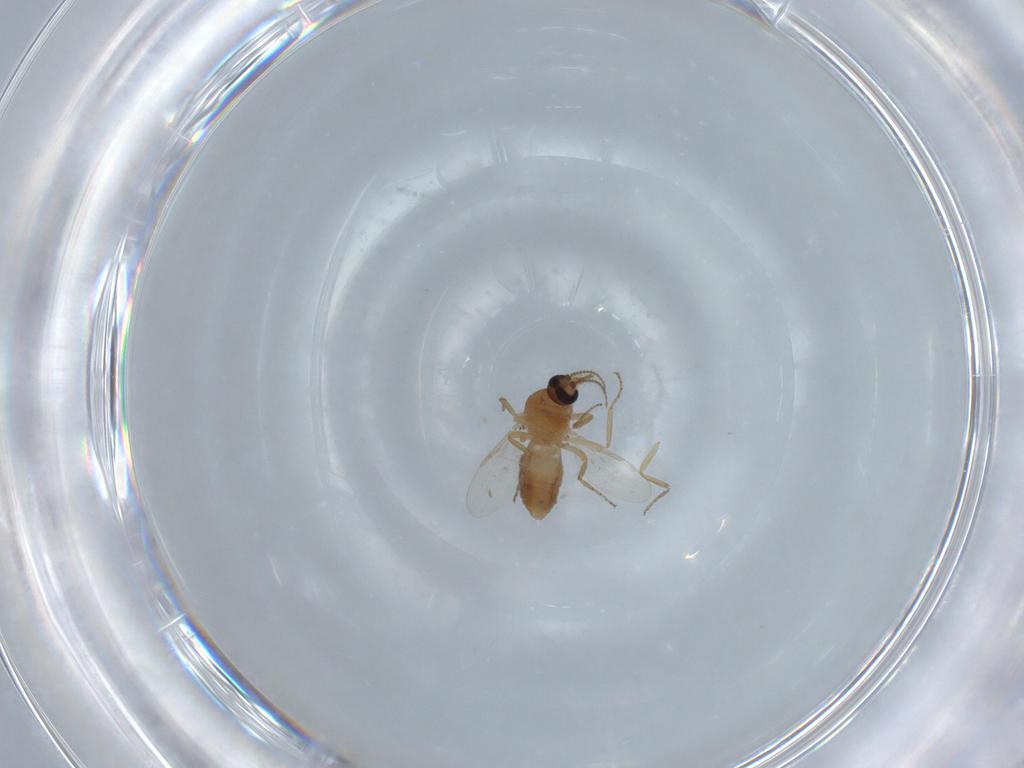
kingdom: Animalia
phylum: Arthropoda
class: Insecta
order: Diptera
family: Ceratopogonidae
